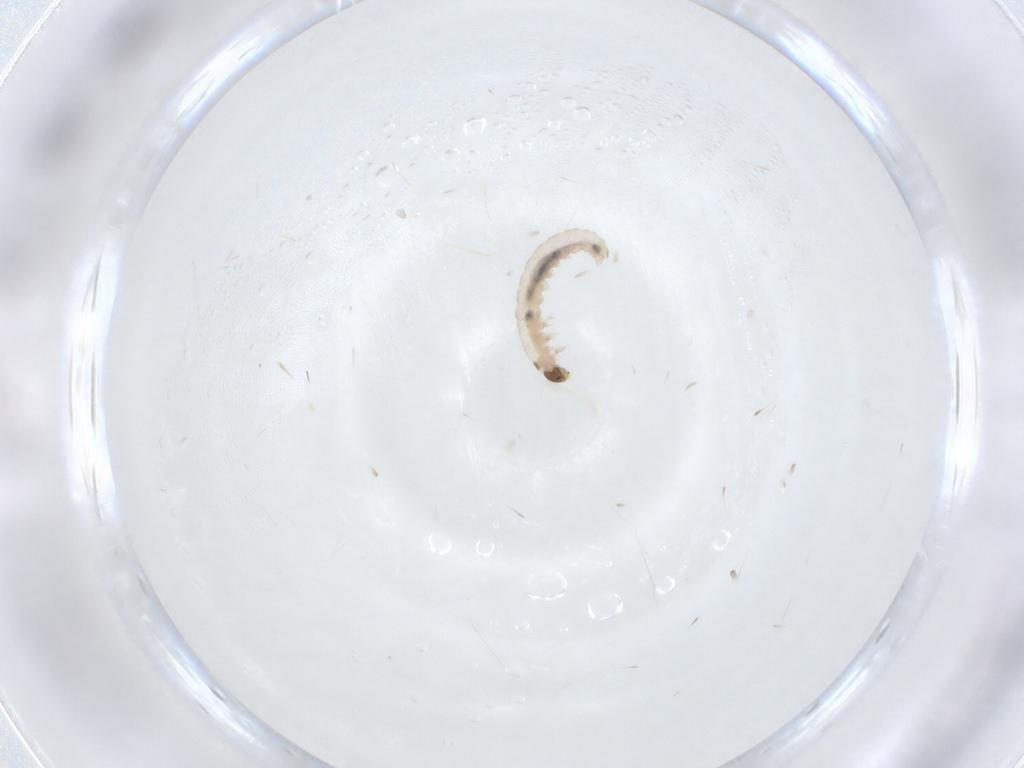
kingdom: Animalia
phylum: Arthropoda
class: Insecta
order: Lepidoptera
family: Gelechiidae
